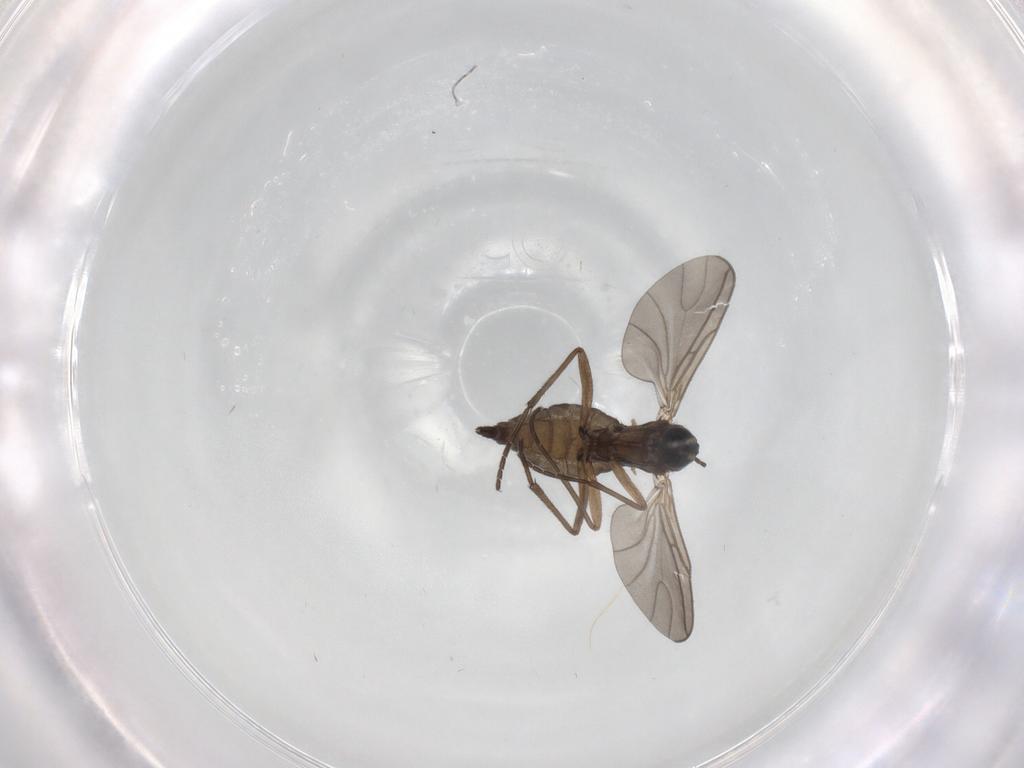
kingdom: Animalia
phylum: Arthropoda
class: Insecta
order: Diptera
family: Sciaridae
